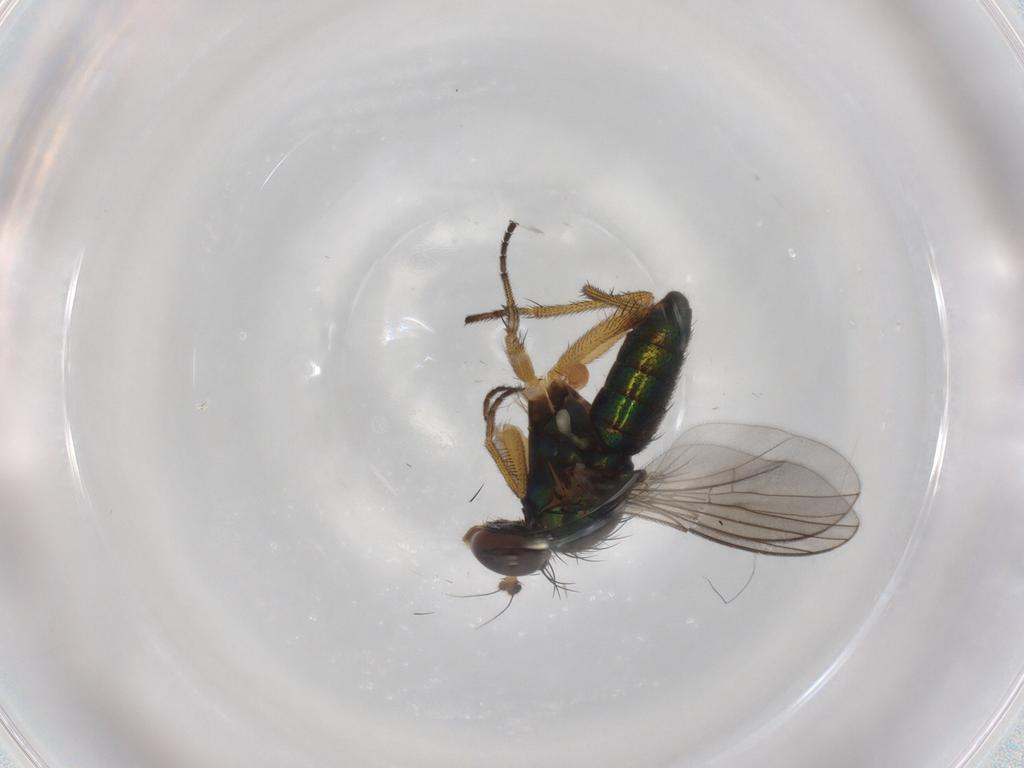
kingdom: Animalia
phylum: Arthropoda
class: Insecta
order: Diptera
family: Dolichopodidae
